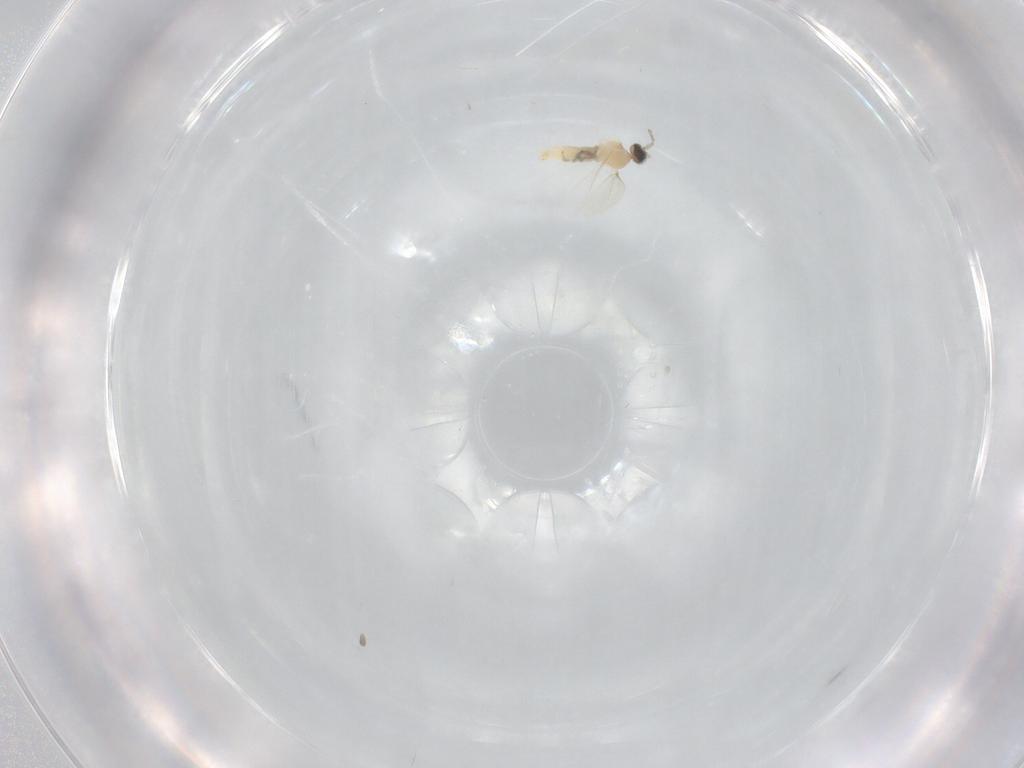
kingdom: Animalia
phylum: Arthropoda
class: Insecta
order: Diptera
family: Cecidomyiidae
